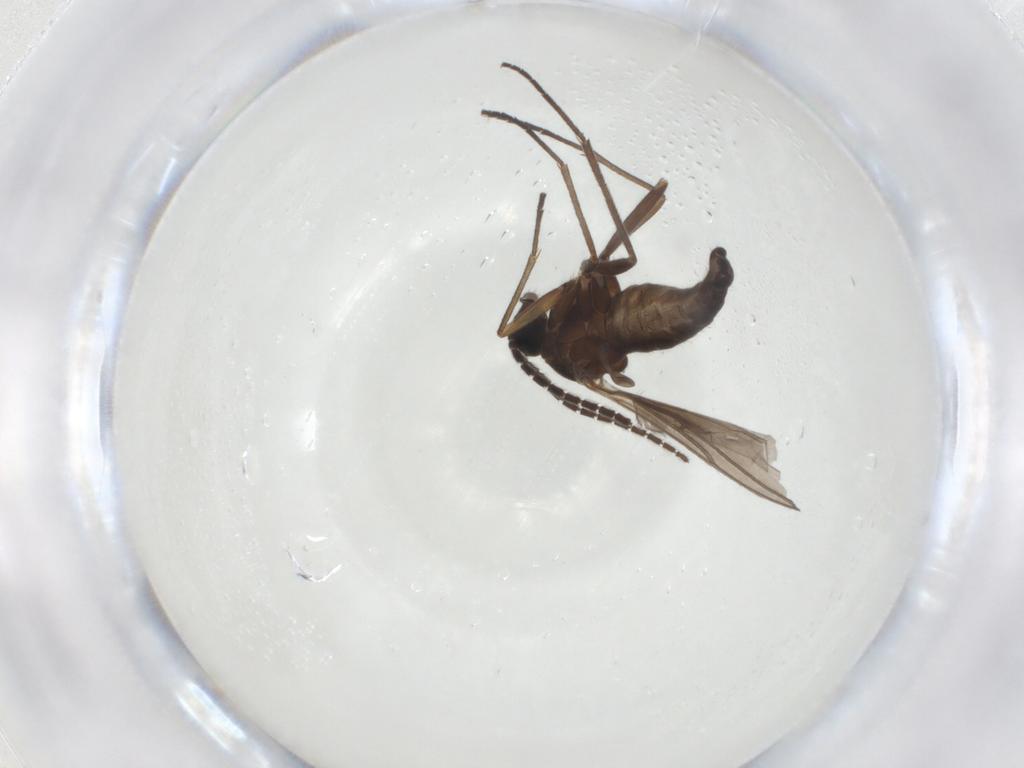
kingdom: Animalia
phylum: Arthropoda
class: Insecta
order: Diptera
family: Sciaridae
